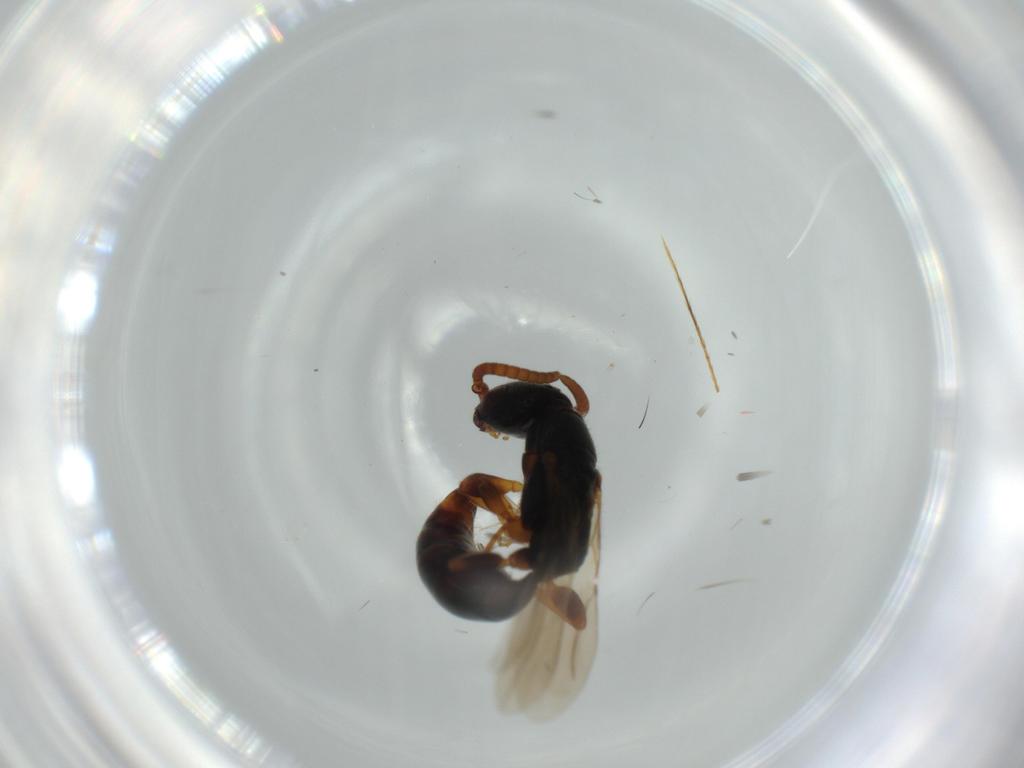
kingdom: Animalia
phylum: Arthropoda
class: Insecta
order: Hymenoptera
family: Bethylidae
